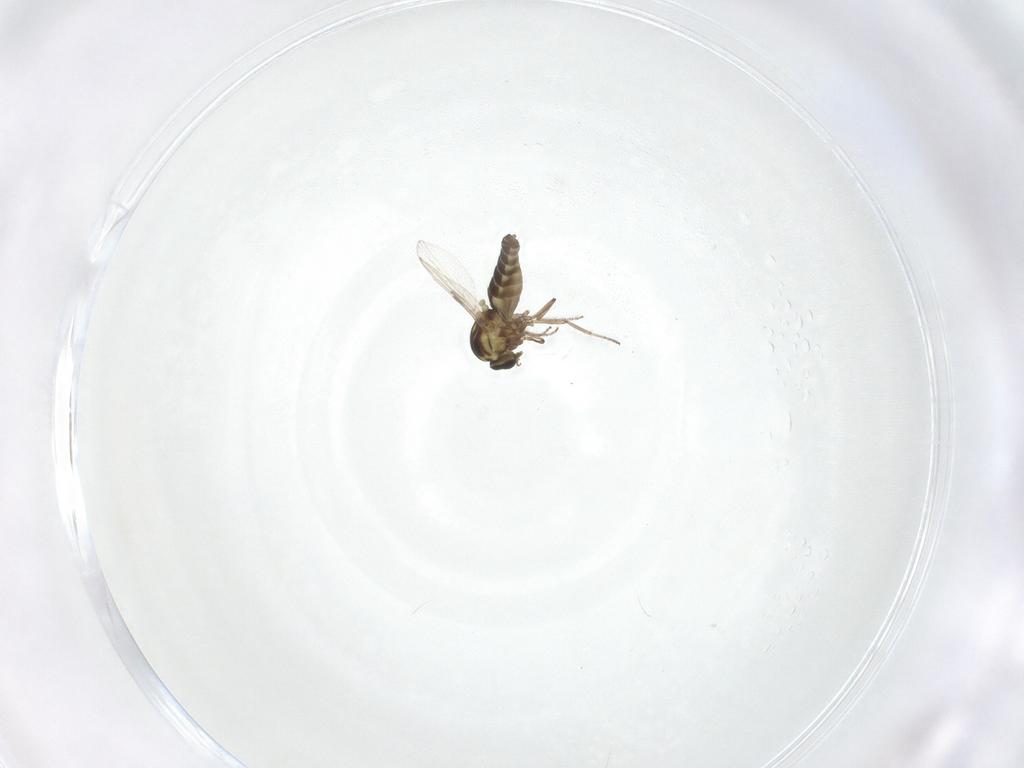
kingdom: Animalia
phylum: Arthropoda
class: Insecta
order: Diptera
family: Ceratopogonidae
